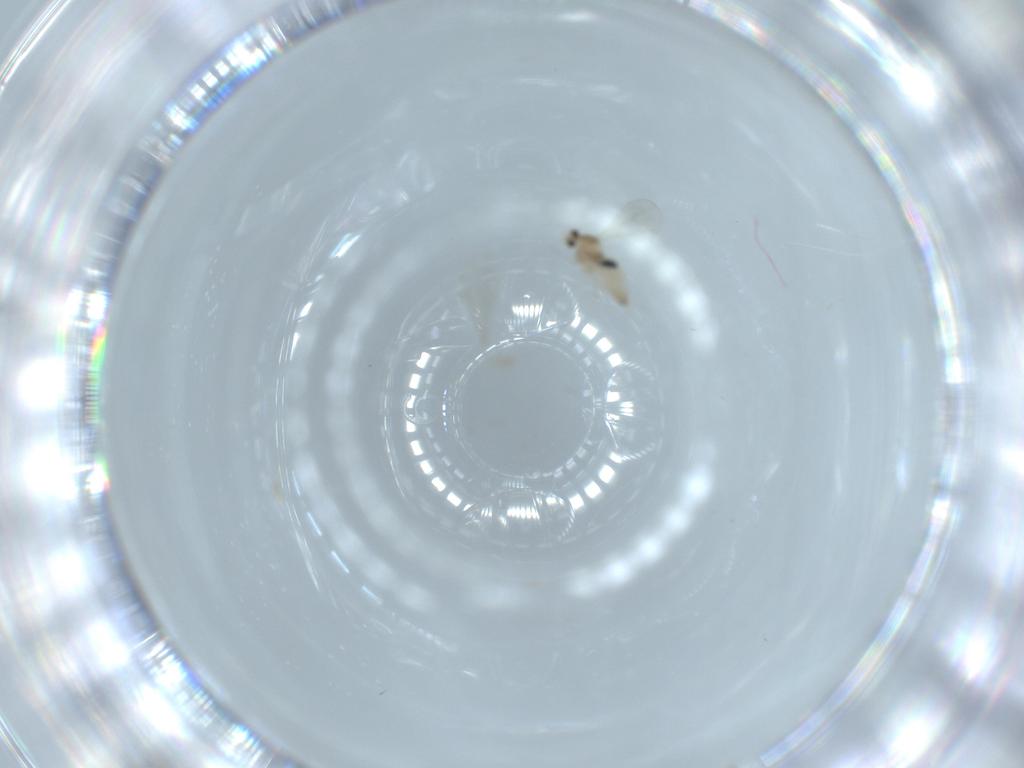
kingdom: Animalia
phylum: Arthropoda
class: Insecta
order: Diptera
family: Cecidomyiidae
